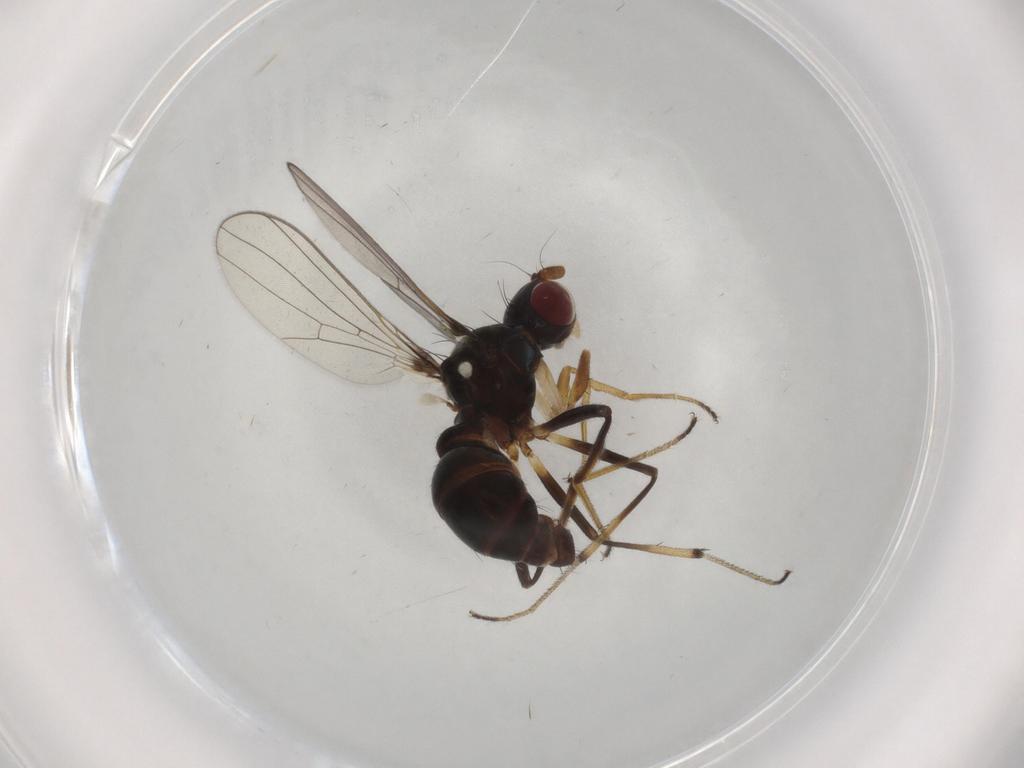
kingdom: Animalia
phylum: Arthropoda
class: Insecta
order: Diptera
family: Sepsidae
